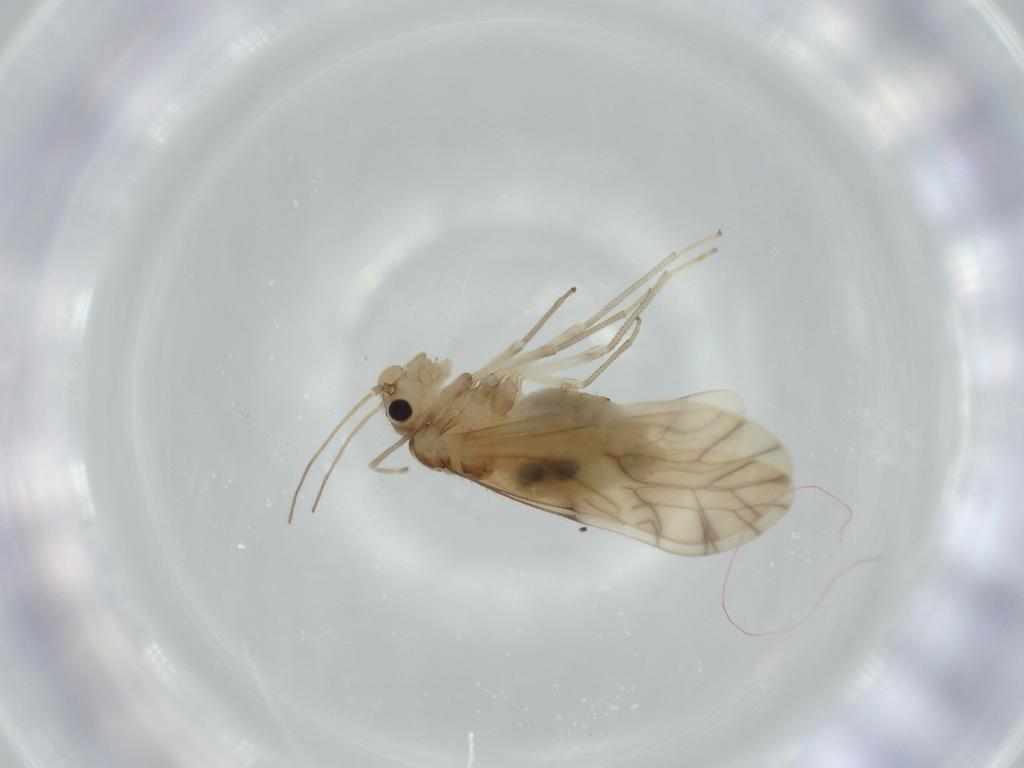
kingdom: Animalia
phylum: Arthropoda
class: Insecta
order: Psocodea
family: Caeciliusidae
